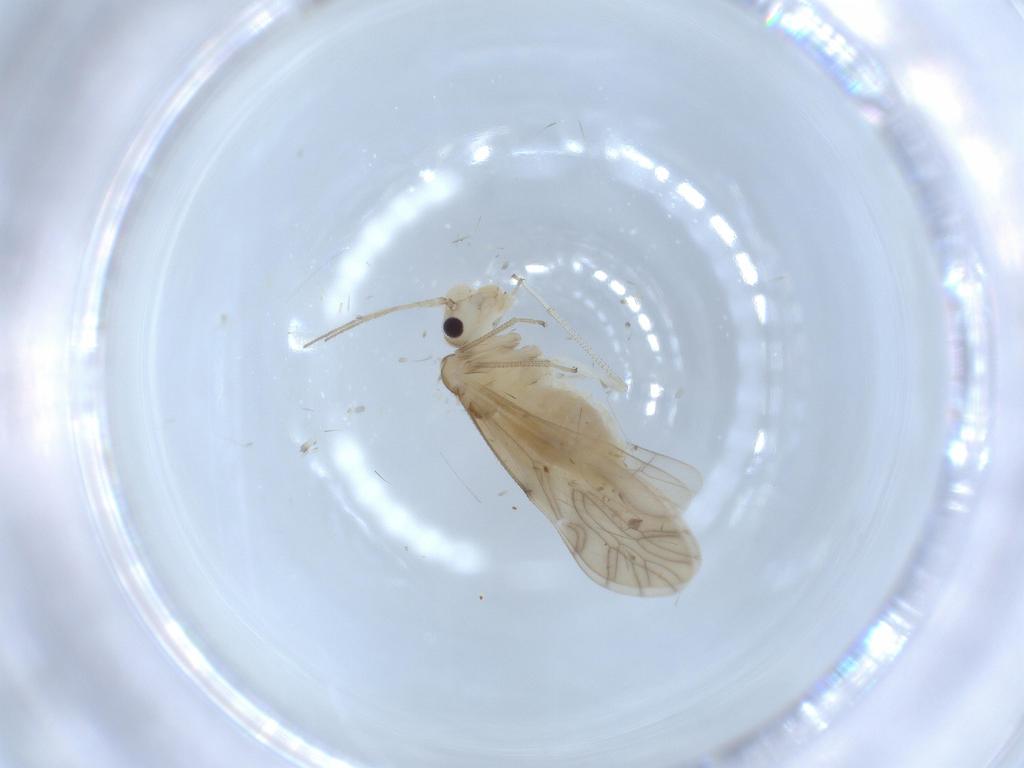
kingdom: Animalia
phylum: Arthropoda
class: Insecta
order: Psocodea
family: Caeciliusidae
